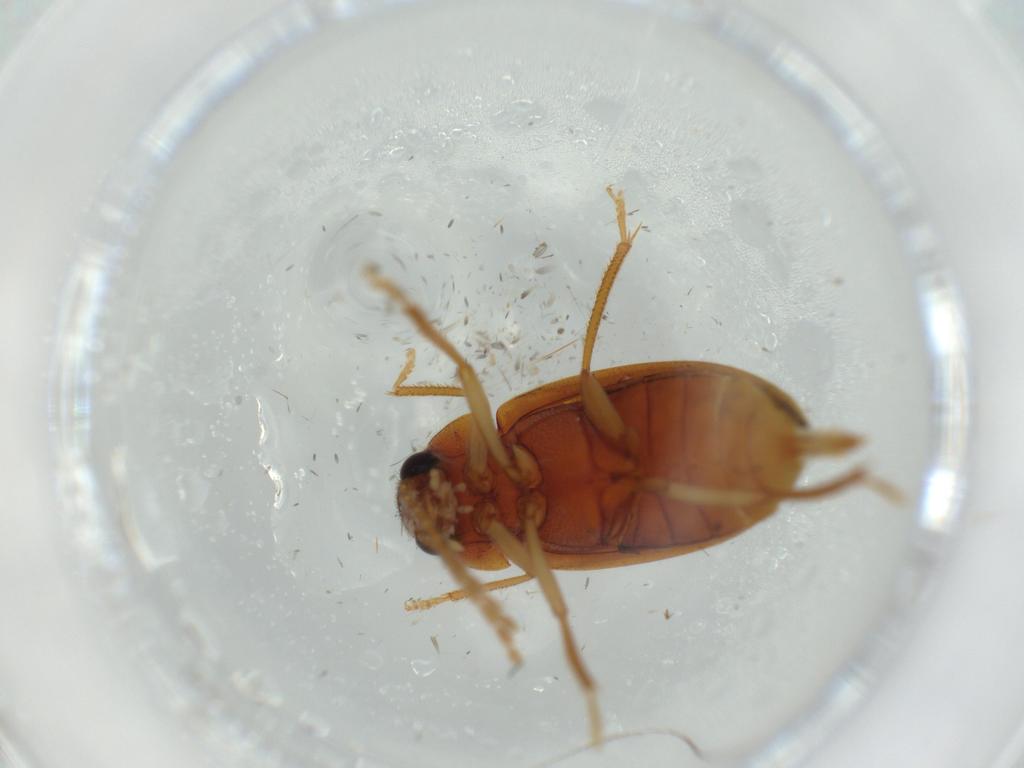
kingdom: Animalia
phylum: Arthropoda
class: Insecta
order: Coleoptera
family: Ptilodactylidae
